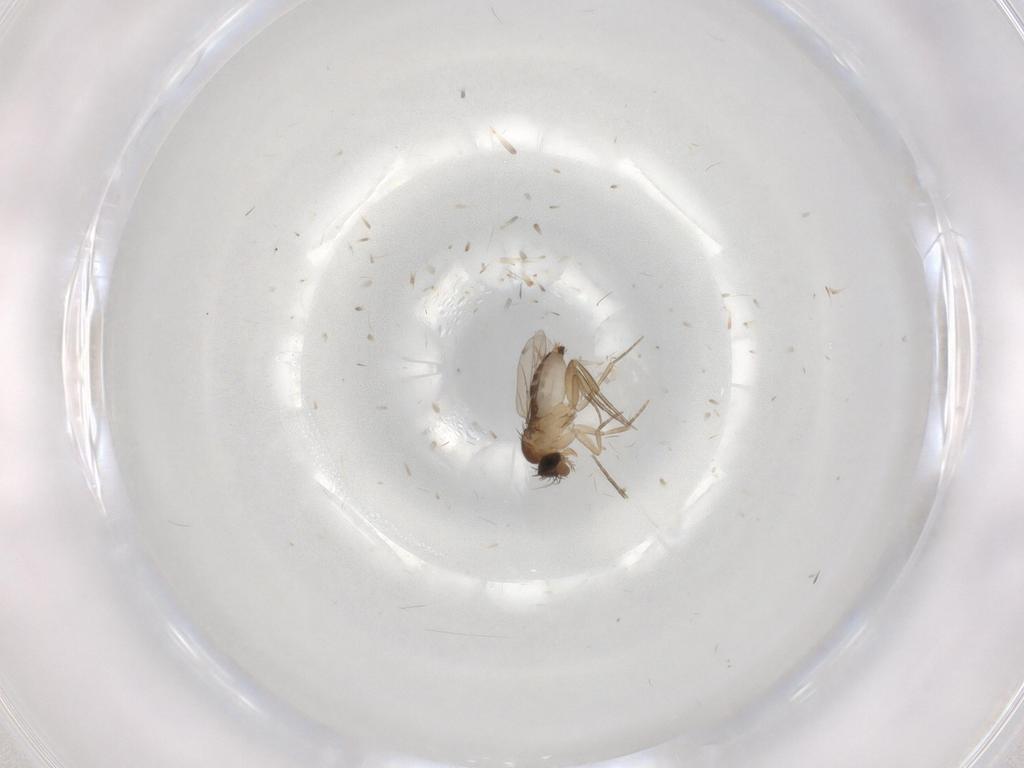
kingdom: Animalia
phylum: Arthropoda
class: Insecta
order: Diptera
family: Phoridae
